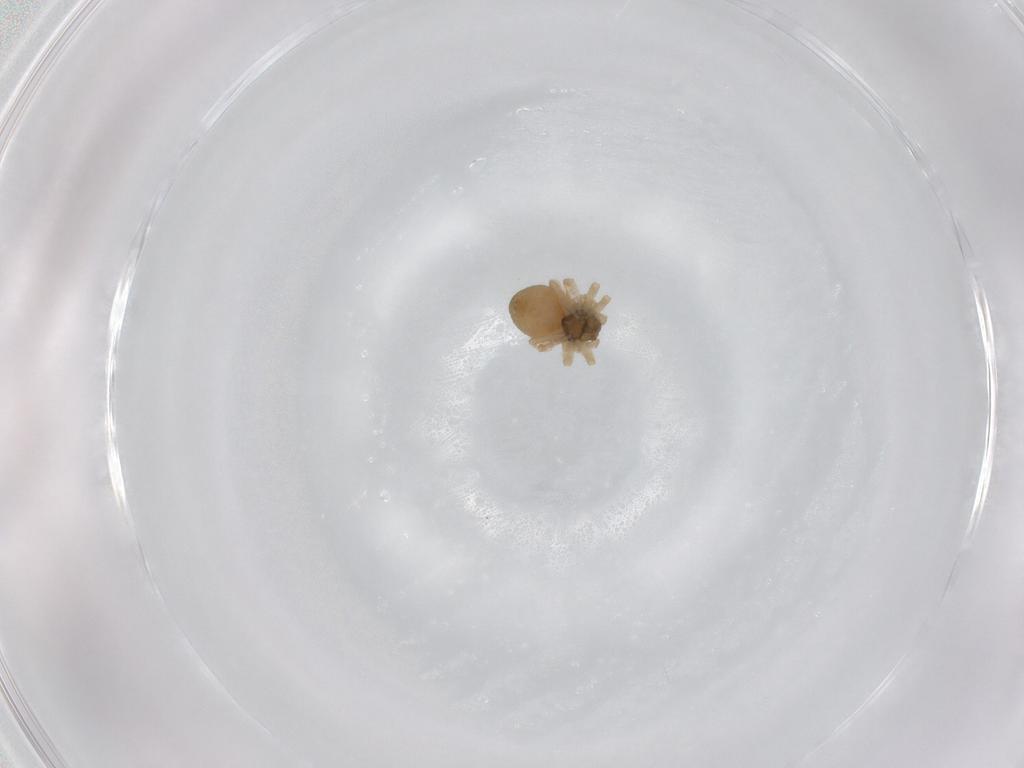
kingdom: Animalia
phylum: Arthropoda
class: Arachnida
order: Araneae
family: Linyphiidae
